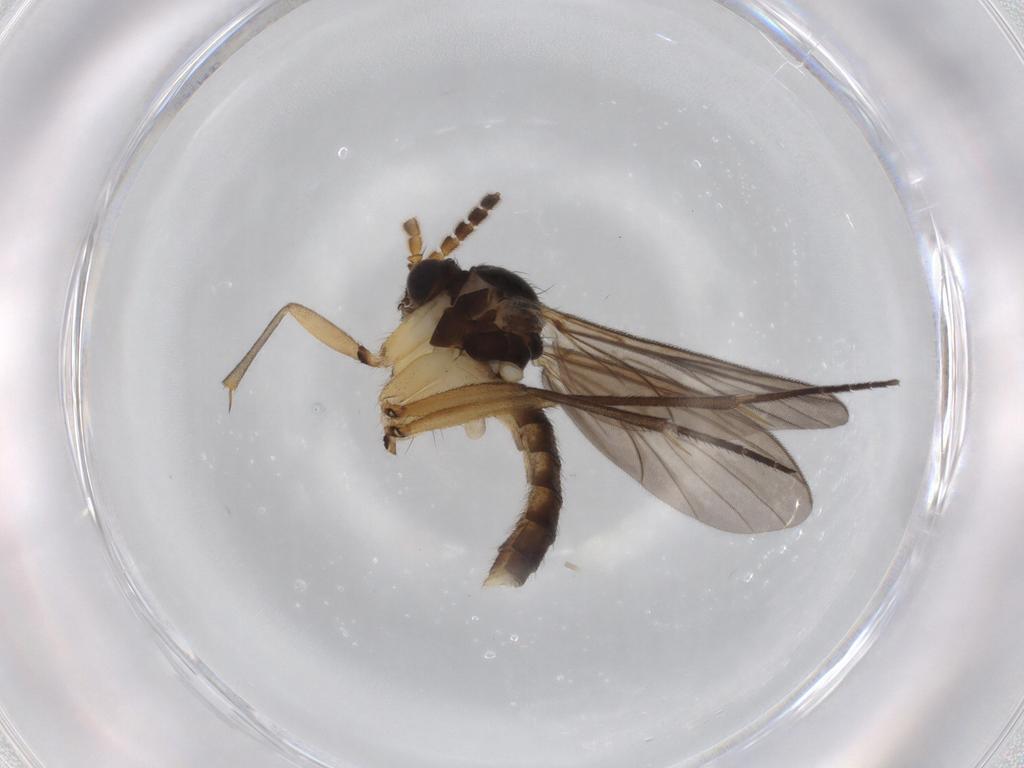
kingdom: Animalia
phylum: Arthropoda
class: Insecta
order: Diptera
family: Mycetophilidae
